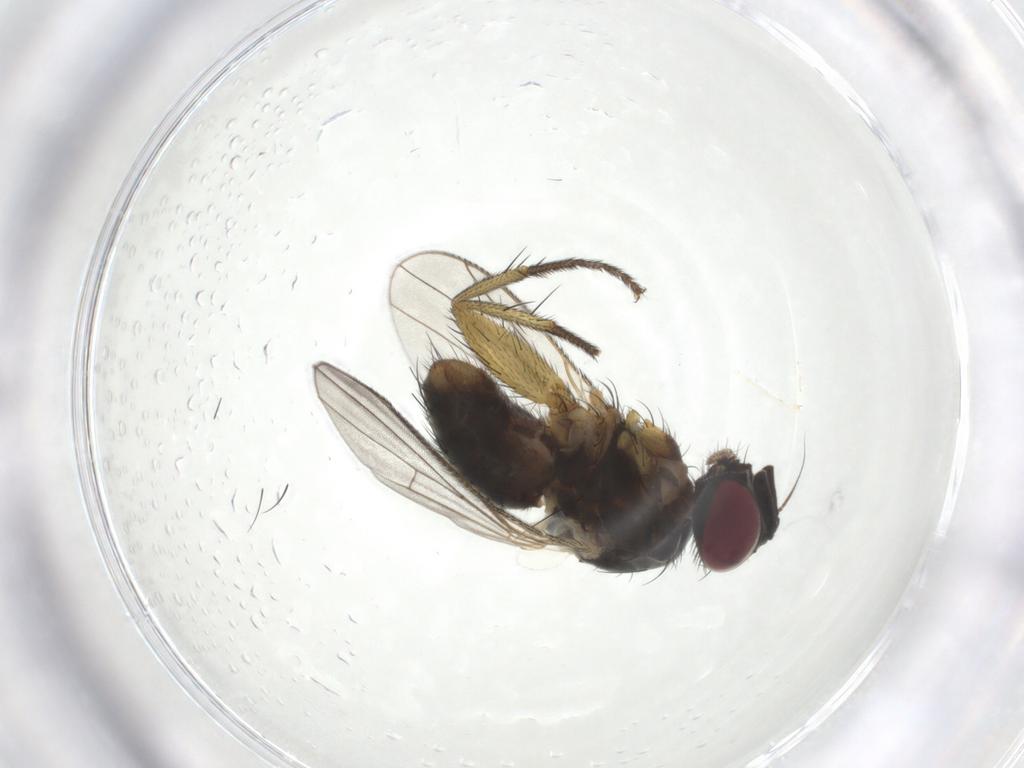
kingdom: Animalia
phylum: Arthropoda
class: Insecta
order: Diptera
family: Muscidae
